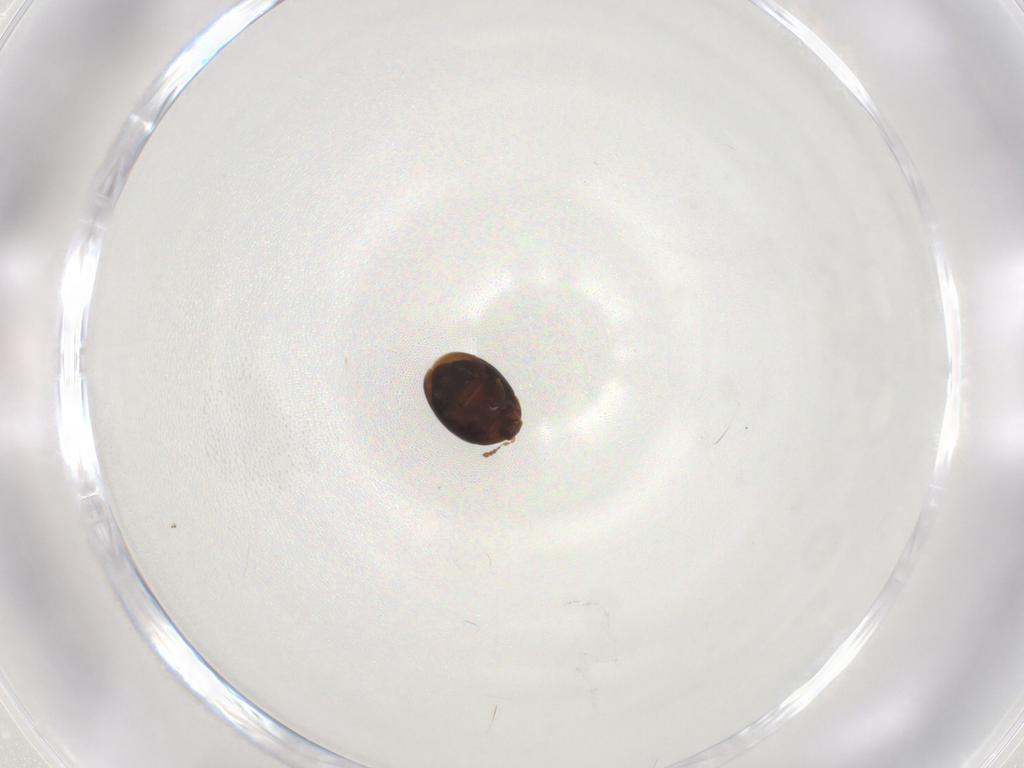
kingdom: Animalia
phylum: Arthropoda
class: Insecta
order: Coleoptera
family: Corylophidae
